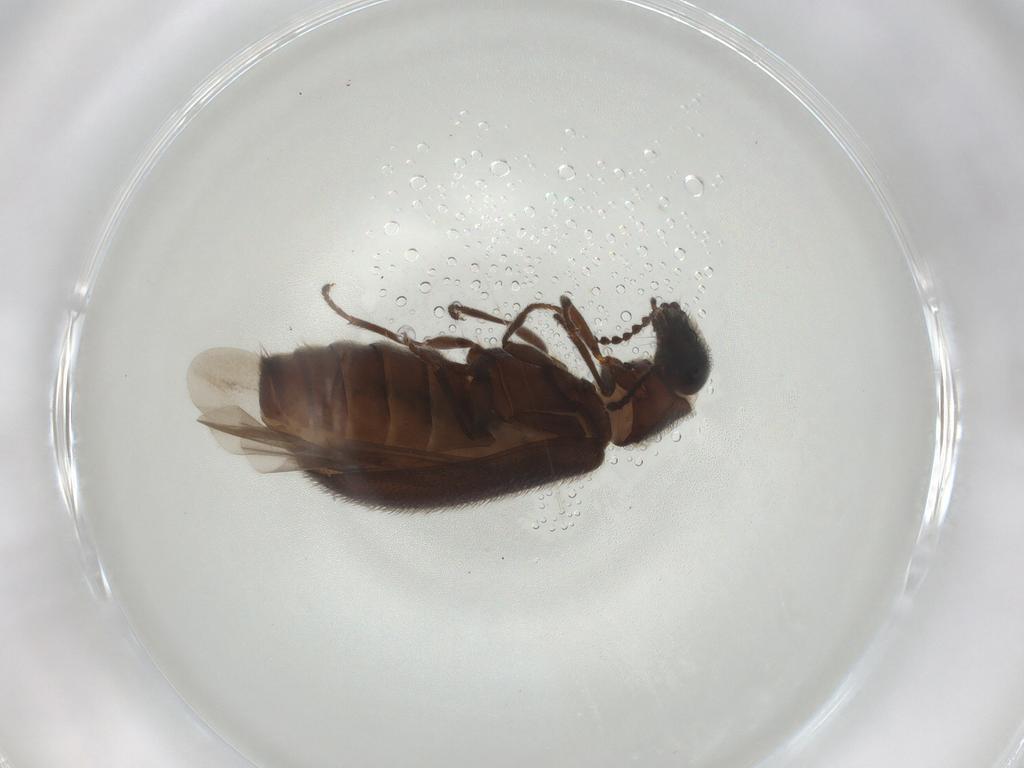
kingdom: Animalia
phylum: Arthropoda
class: Insecta
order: Coleoptera
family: Melyridae
